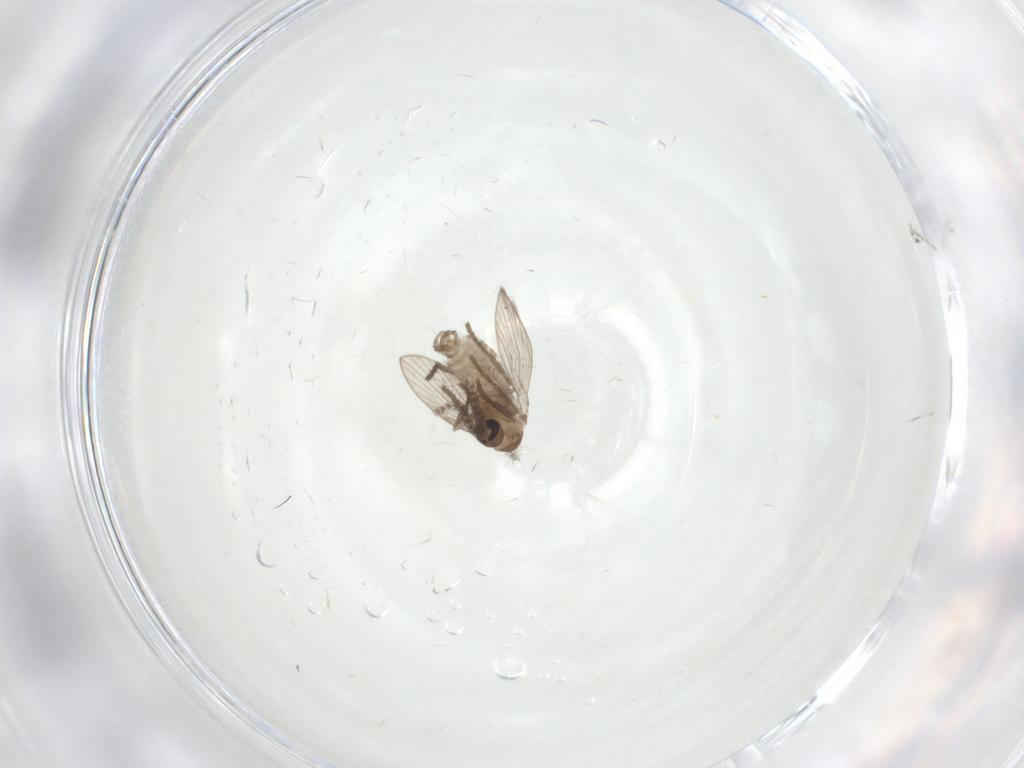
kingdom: Animalia
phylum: Arthropoda
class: Insecta
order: Diptera
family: Psychodidae
